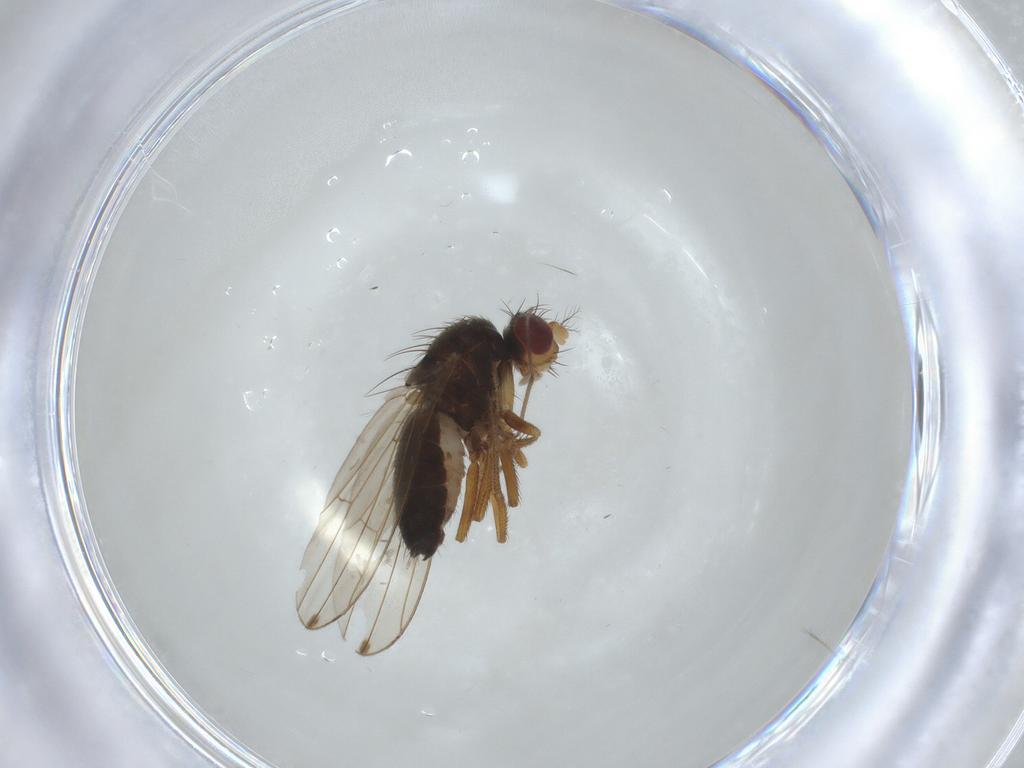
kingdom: Animalia
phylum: Arthropoda
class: Insecta
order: Diptera
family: Drosophilidae
